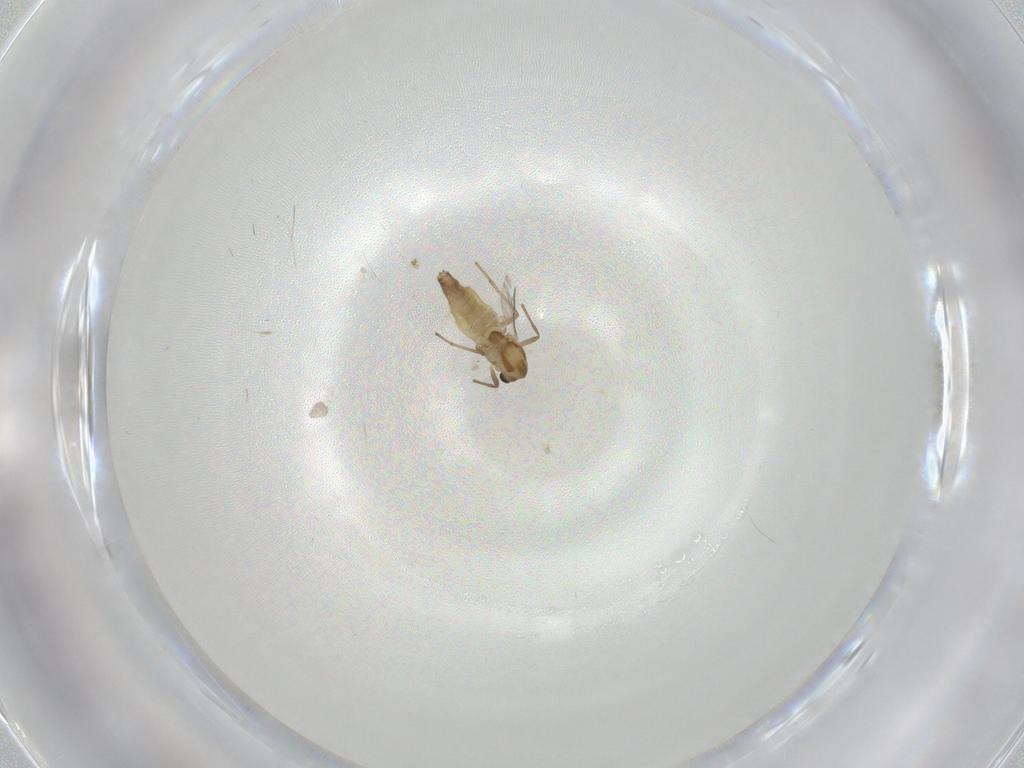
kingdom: Animalia
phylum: Arthropoda
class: Insecta
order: Diptera
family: Chironomidae
